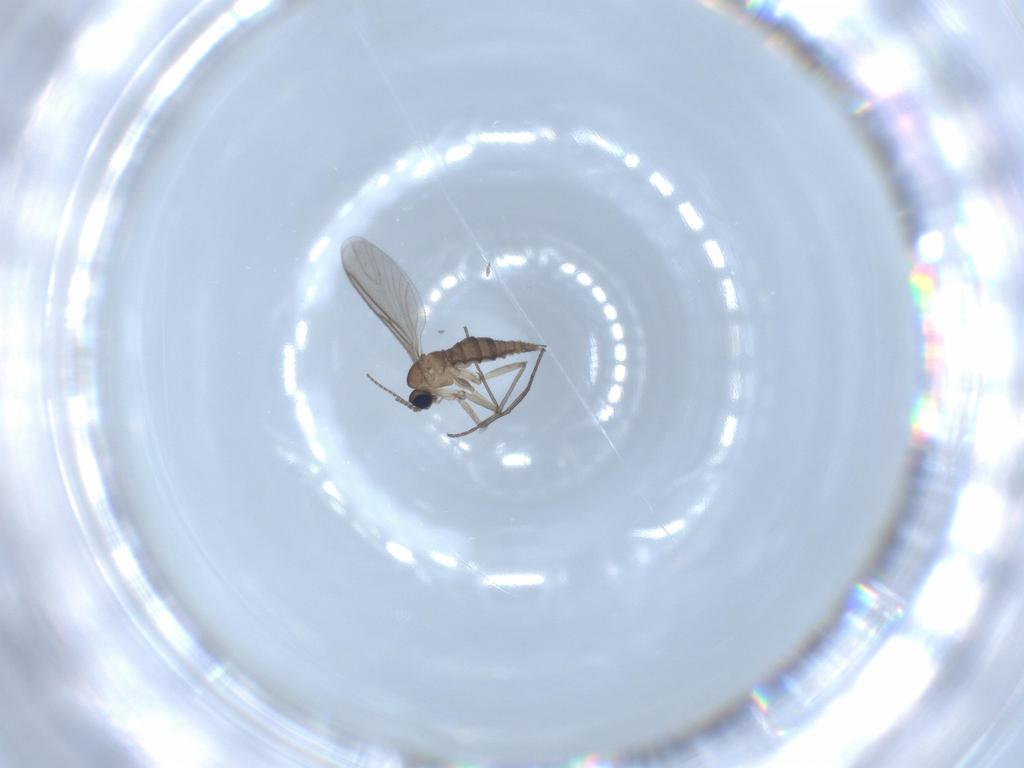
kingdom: Animalia
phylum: Arthropoda
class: Insecta
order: Diptera
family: Sciaridae
